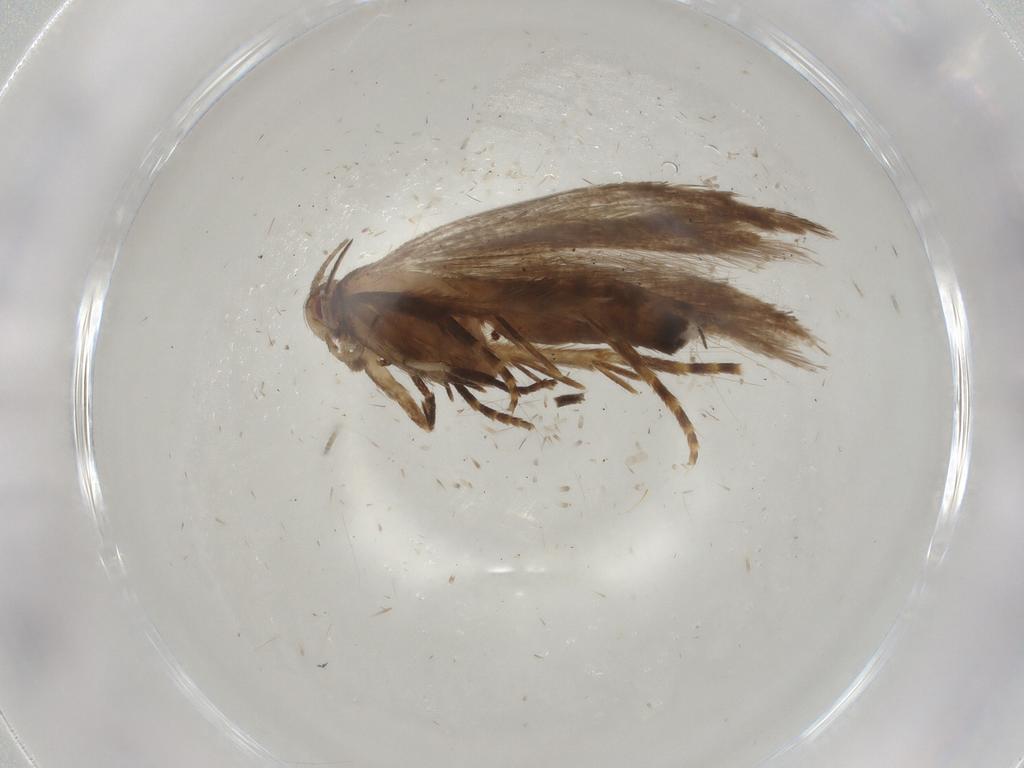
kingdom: Animalia
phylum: Arthropoda
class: Insecta
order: Lepidoptera
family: Gelechiidae
